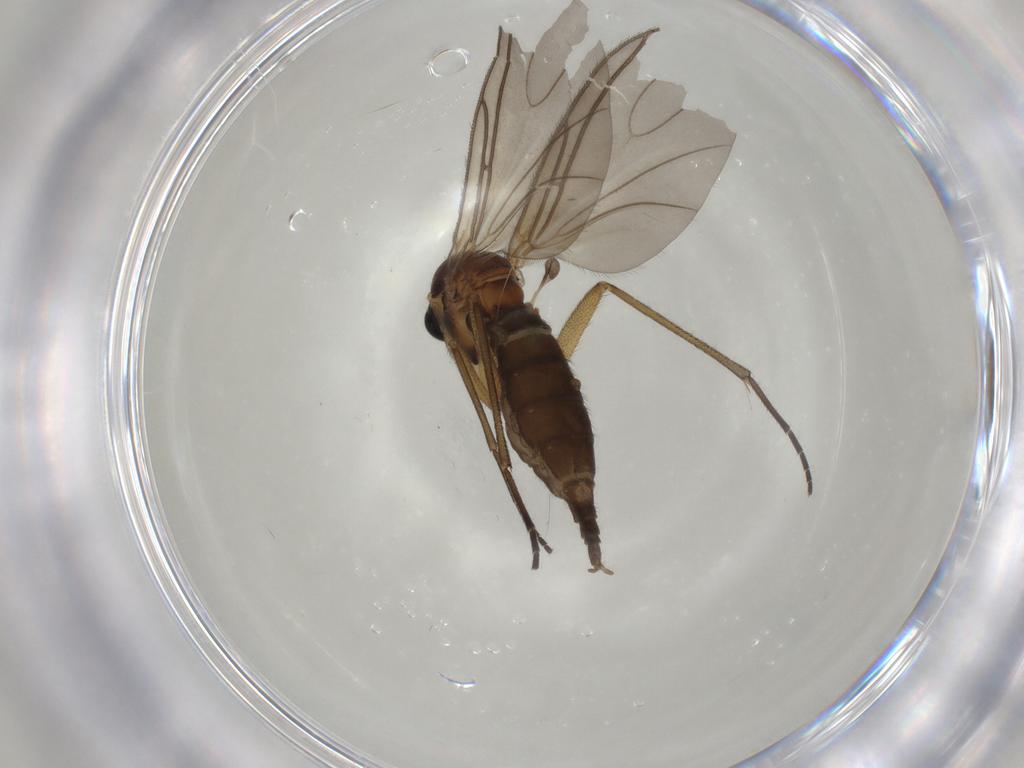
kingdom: Animalia
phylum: Arthropoda
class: Insecta
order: Diptera
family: Sciaridae
